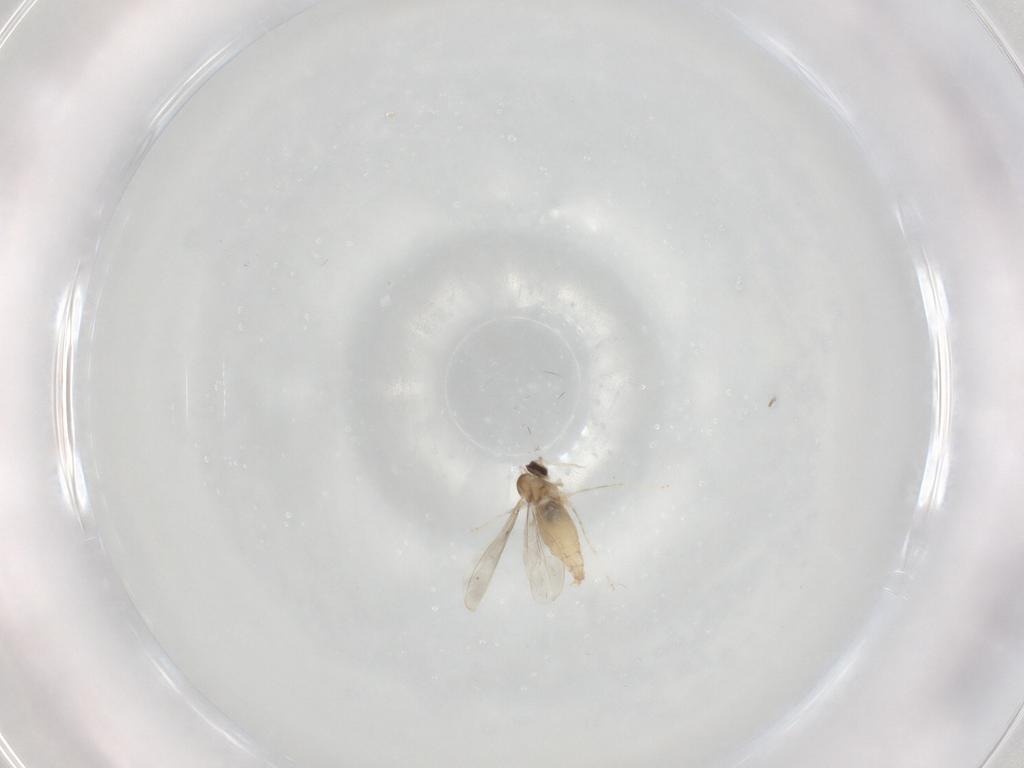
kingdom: Animalia
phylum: Arthropoda
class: Insecta
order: Diptera
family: Cecidomyiidae
